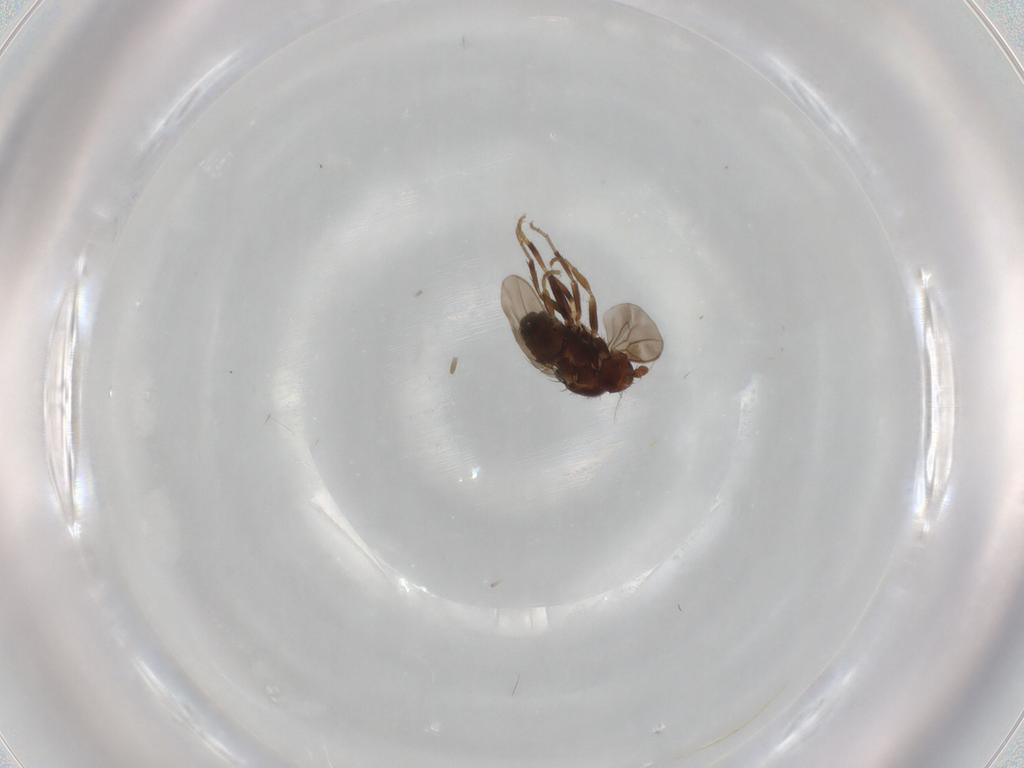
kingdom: Animalia
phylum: Arthropoda
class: Insecta
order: Diptera
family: Sphaeroceridae
